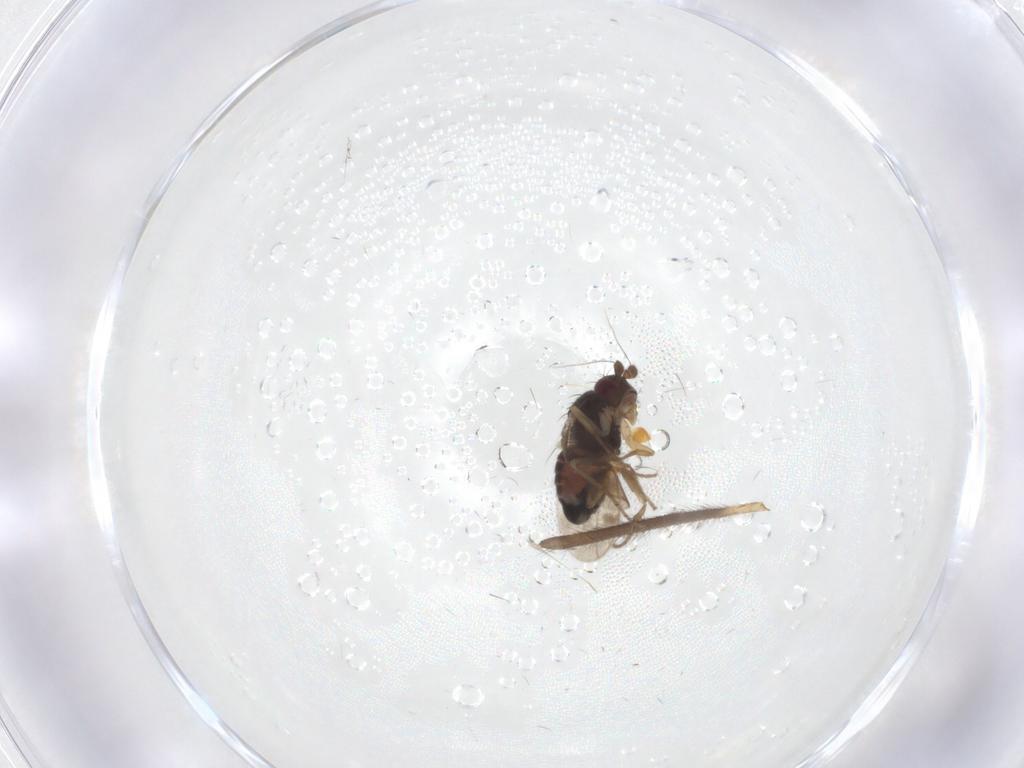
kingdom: Animalia
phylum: Arthropoda
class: Insecta
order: Diptera
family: Sphaeroceridae
